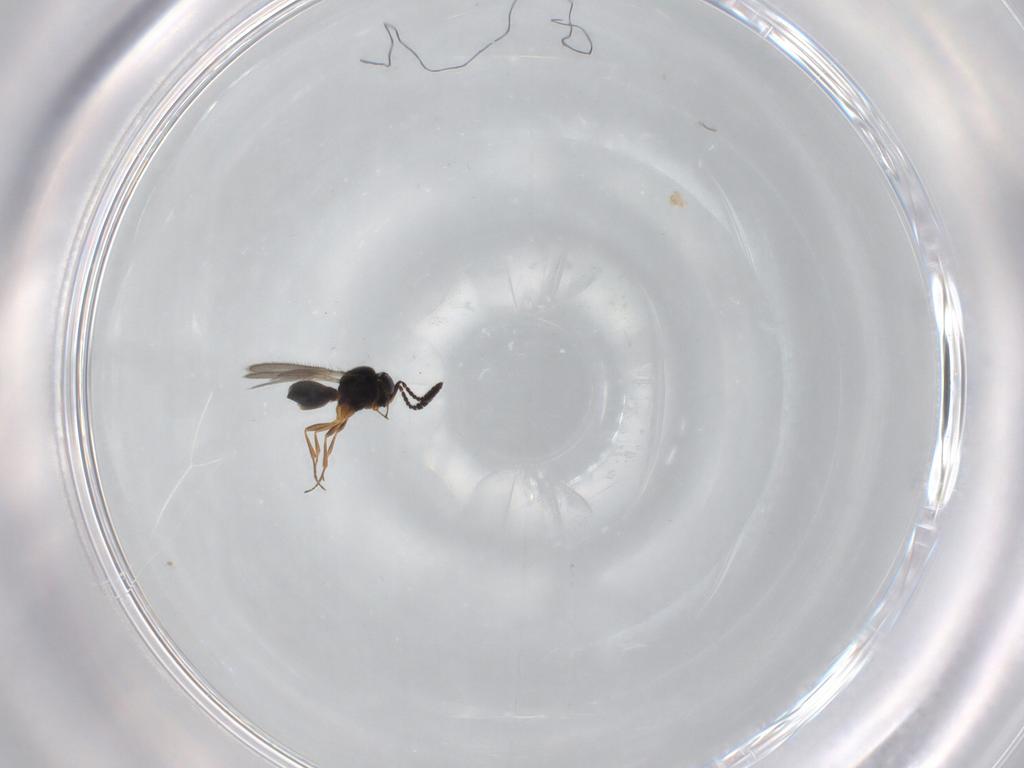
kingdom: Animalia
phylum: Arthropoda
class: Insecta
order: Hymenoptera
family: Scelionidae
